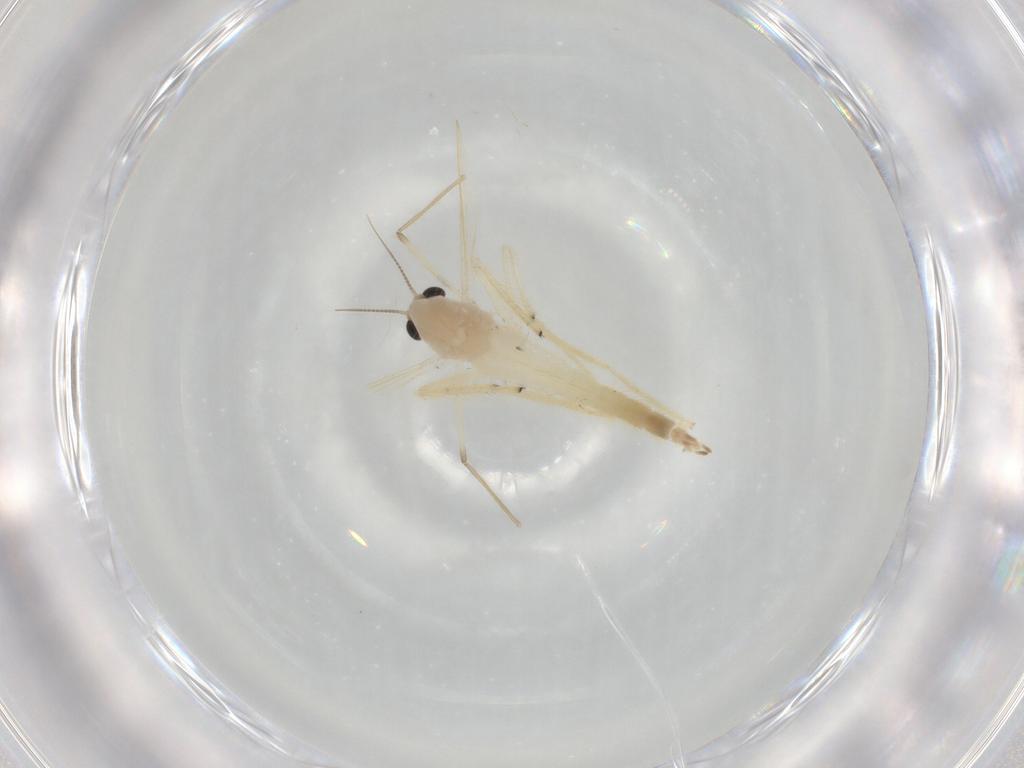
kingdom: Animalia
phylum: Arthropoda
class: Insecta
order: Diptera
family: Chironomidae
